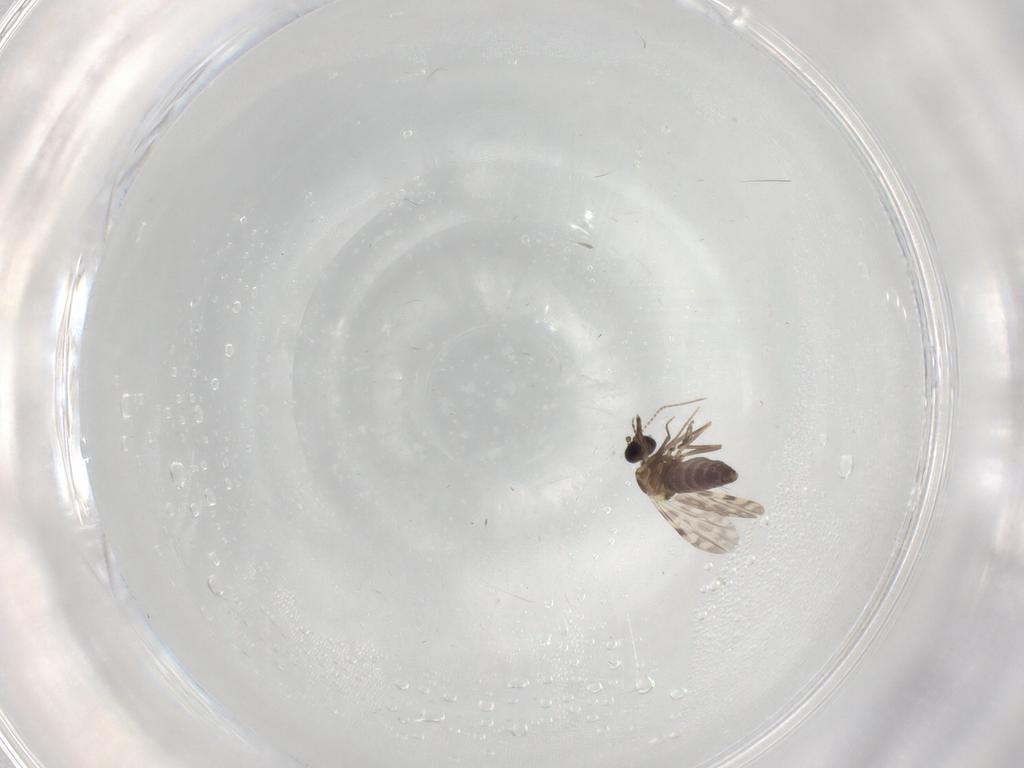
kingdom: Animalia
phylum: Arthropoda
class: Insecta
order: Diptera
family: Ceratopogonidae
